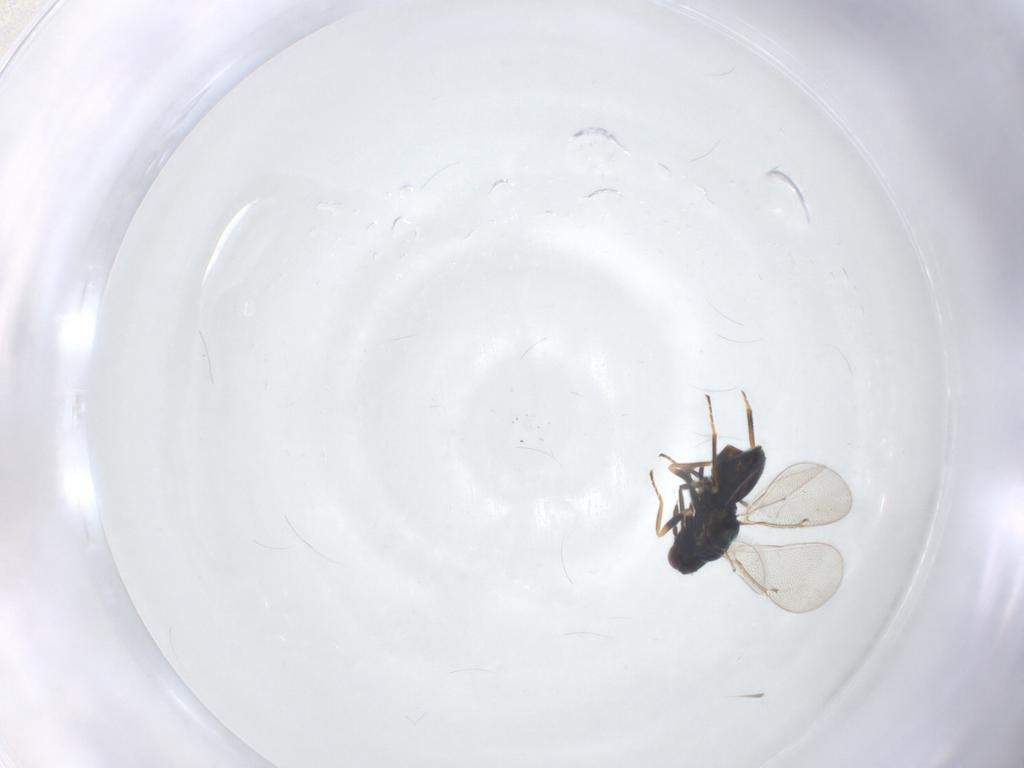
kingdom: Animalia
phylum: Arthropoda
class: Insecta
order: Hymenoptera
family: Eulophidae
